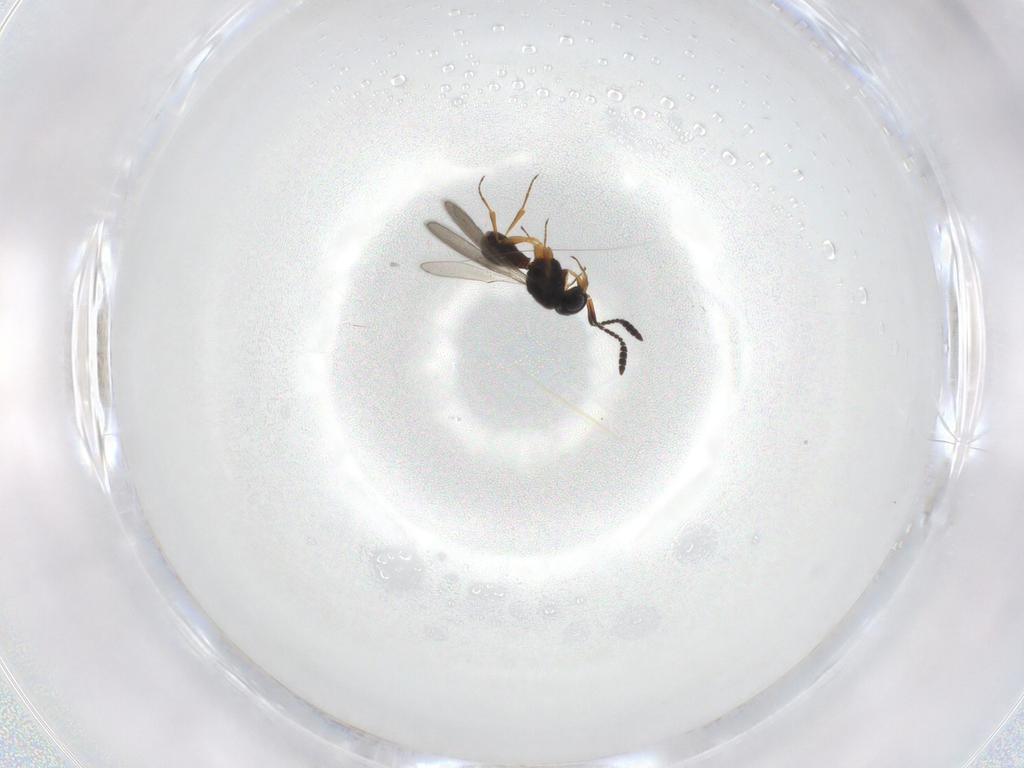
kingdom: Animalia
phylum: Arthropoda
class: Insecta
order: Hymenoptera
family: Scelionidae
